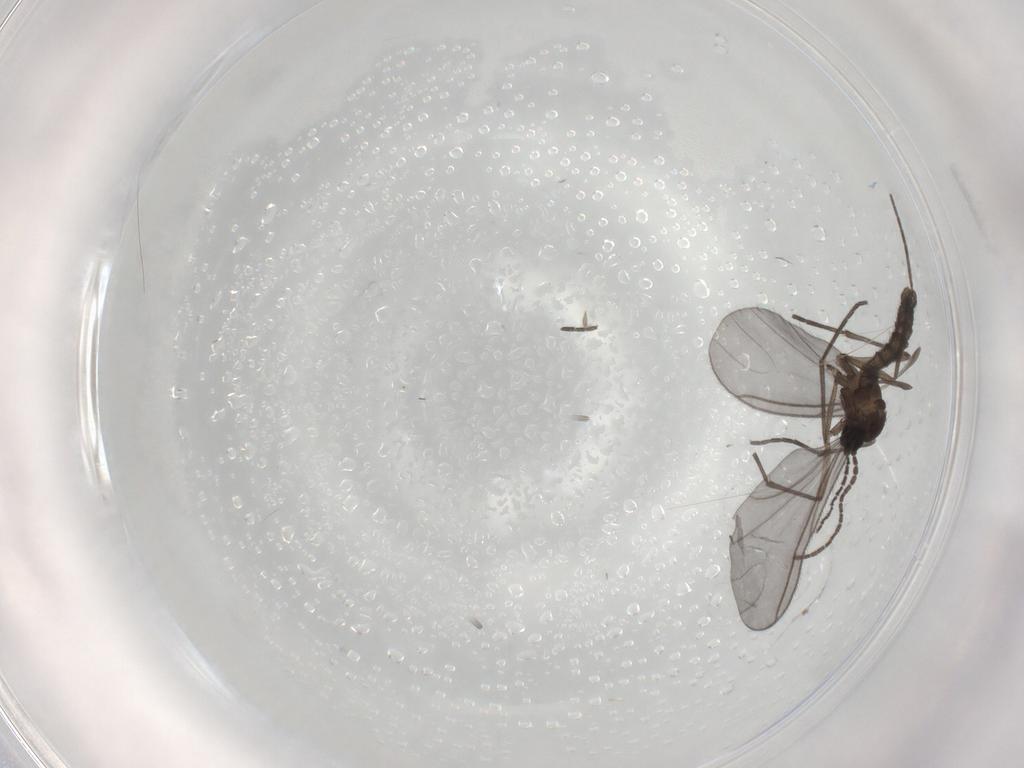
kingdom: Animalia
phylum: Arthropoda
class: Insecta
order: Diptera
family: Sciaridae
